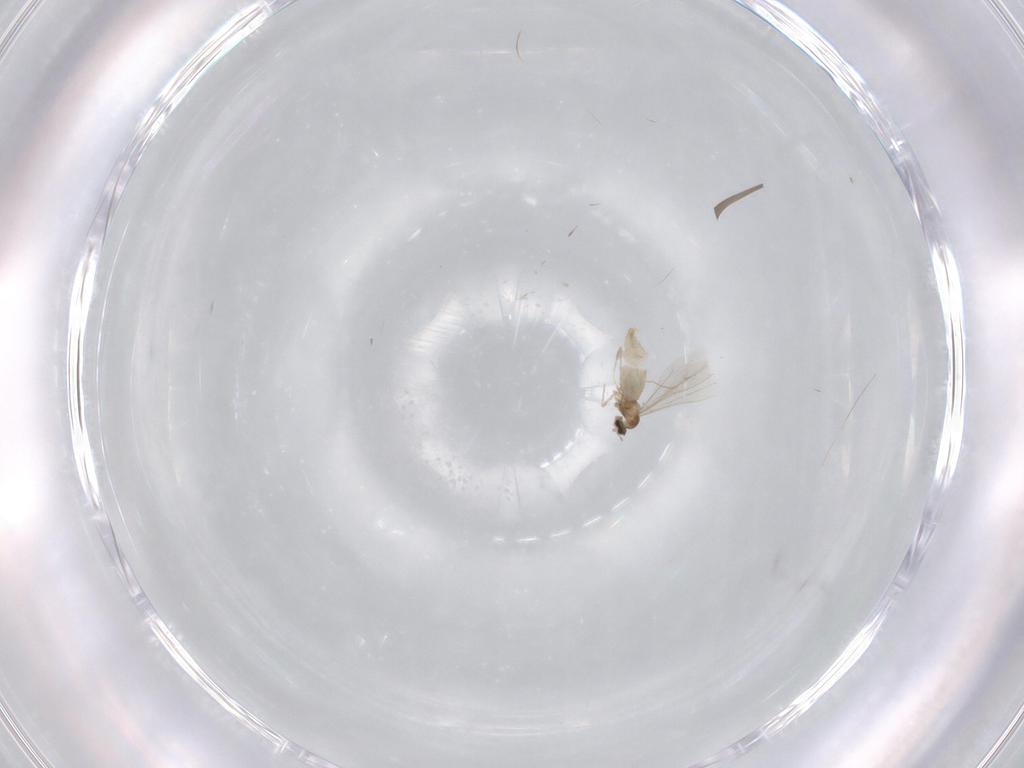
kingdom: Animalia
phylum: Arthropoda
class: Insecta
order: Diptera
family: Cecidomyiidae
